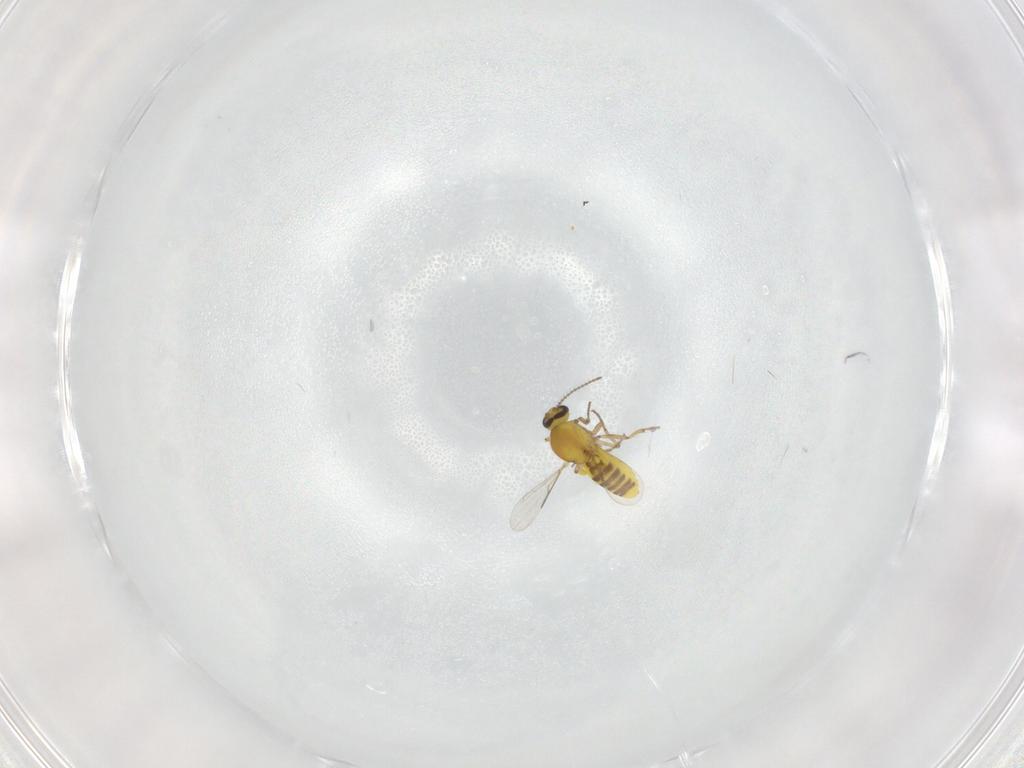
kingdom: Animalia
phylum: Arthropoda
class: Insecta
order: Diptera
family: Ceratopogonidae
